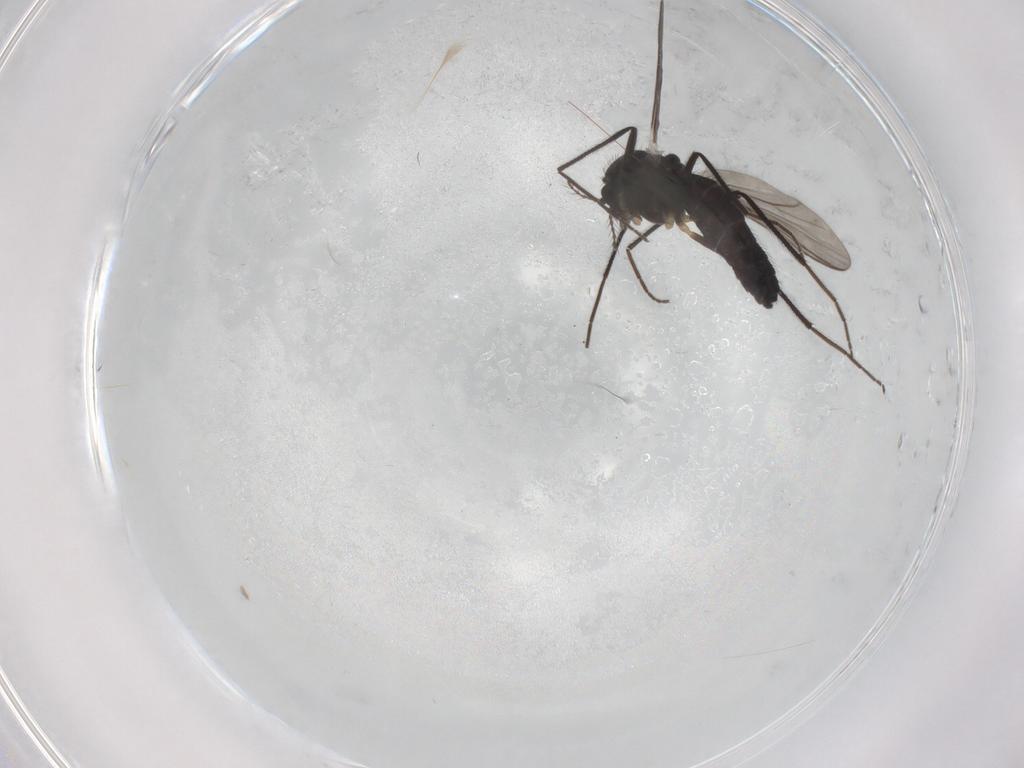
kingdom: Animalia
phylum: Arthropoda
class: Insecta
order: Diptera
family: Chironomidae
